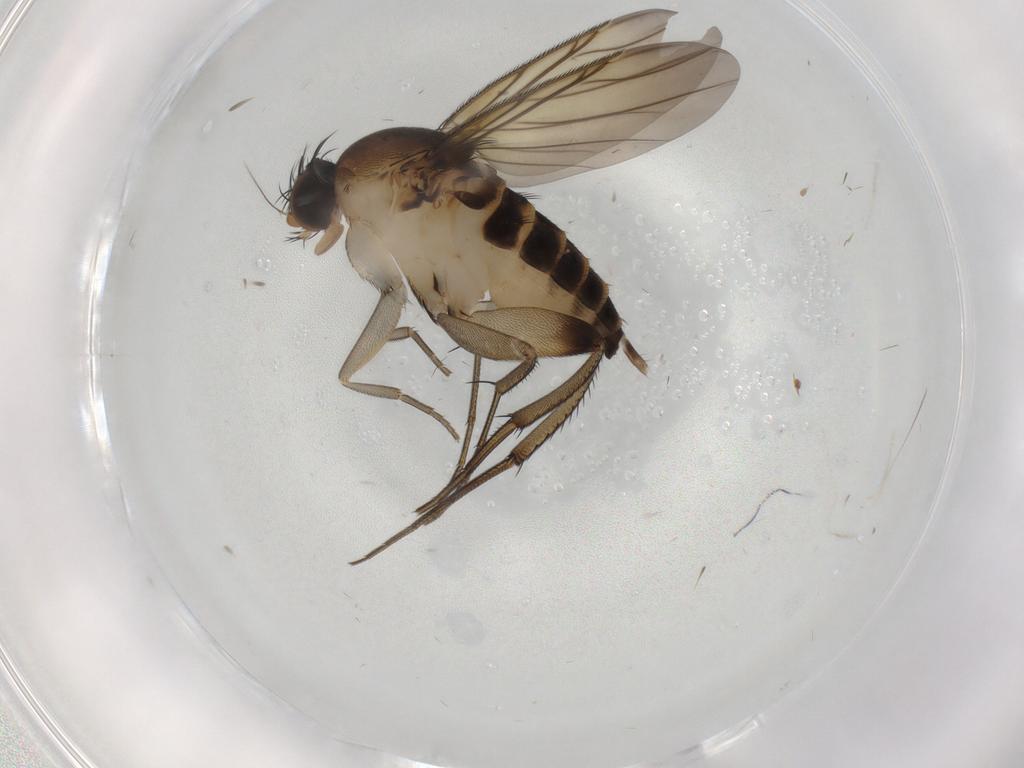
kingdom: Animalia
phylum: Arthropoda
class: Insecta
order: Diptera
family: Phoridae
